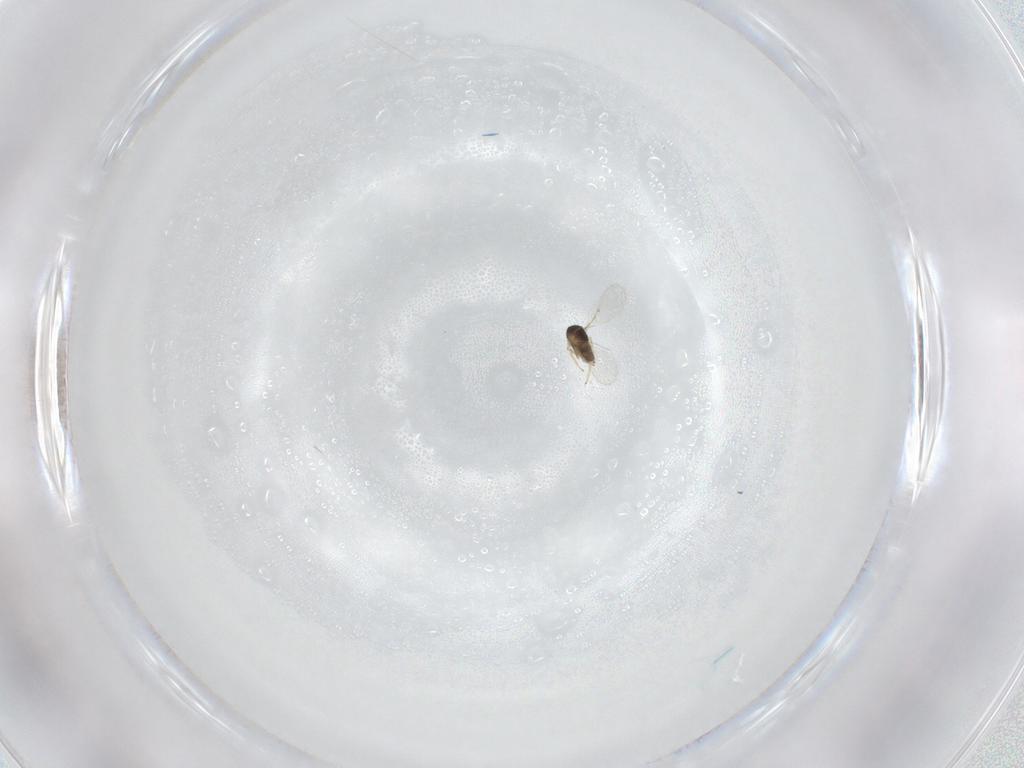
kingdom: Animalia
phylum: Arthropoda
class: Insecta
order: Hymenoptera
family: Encyrtidae
